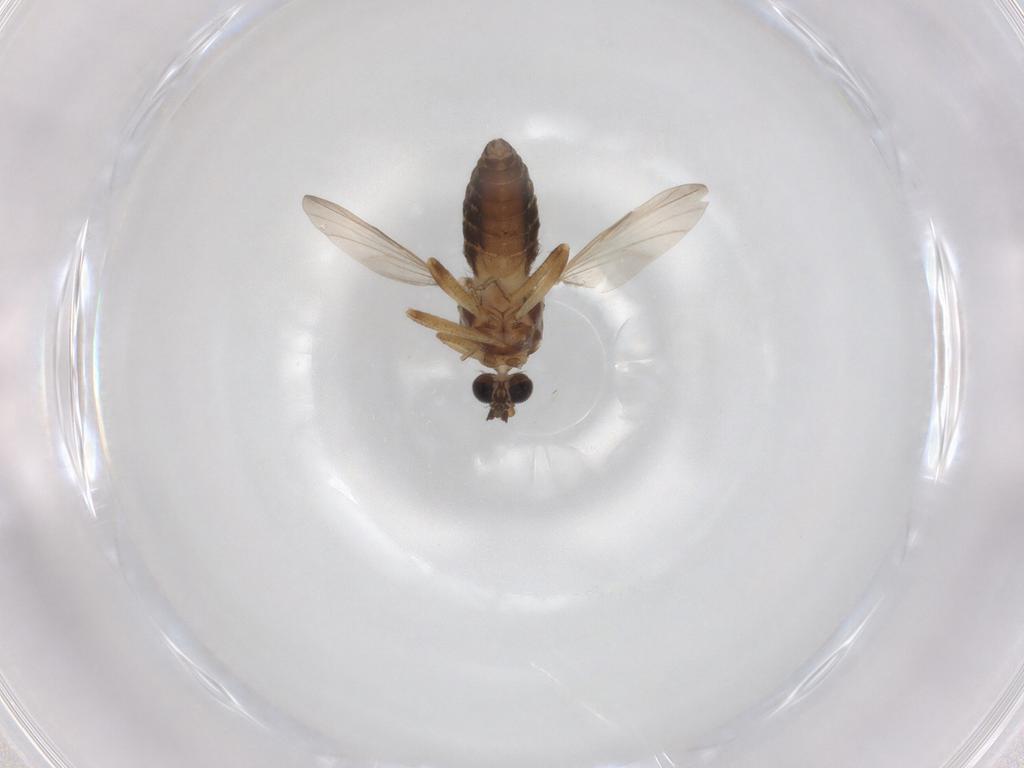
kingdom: Animalia
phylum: Arthropoda
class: Insecta
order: Diptera
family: Ceratopogonidae
